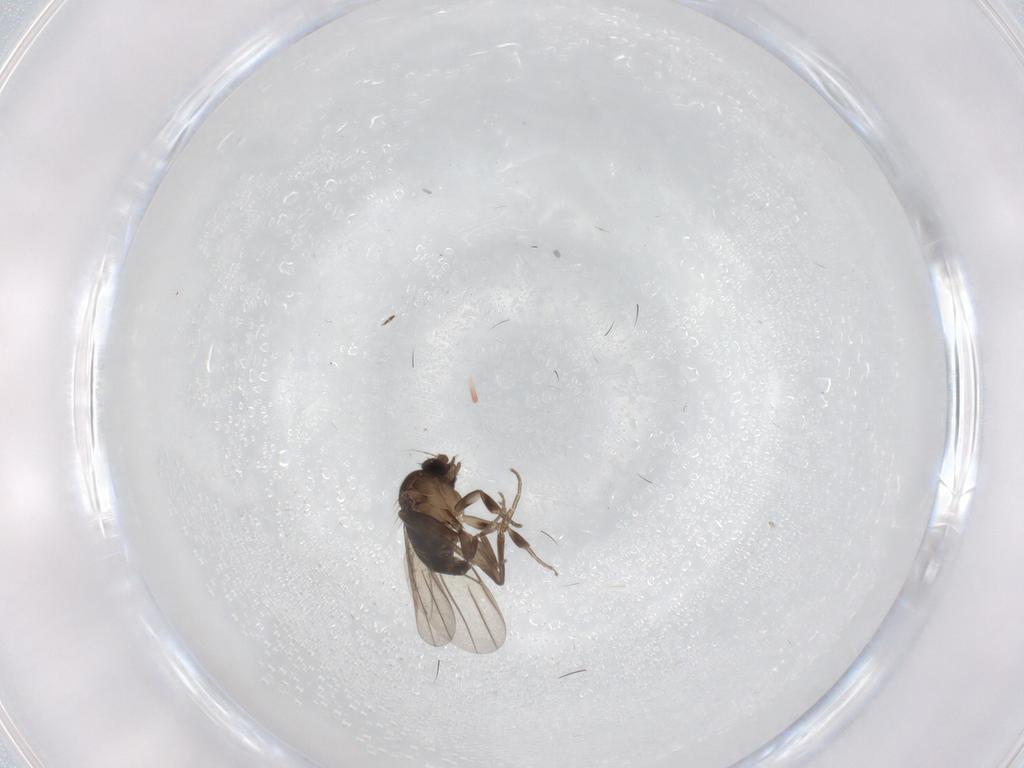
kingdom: Animalia
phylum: Arthropoda
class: Insecta
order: Diptera
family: Phoridae
